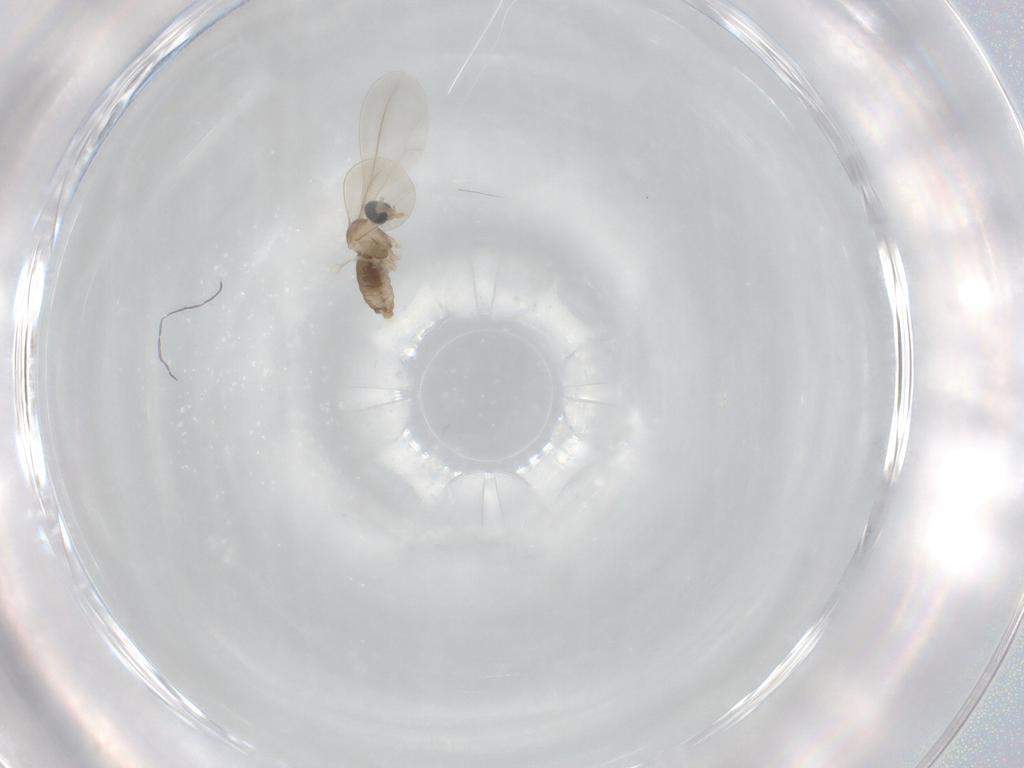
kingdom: Animalia
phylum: Arthropoda
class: Insecta
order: Diptera
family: Cecidomyiidae
